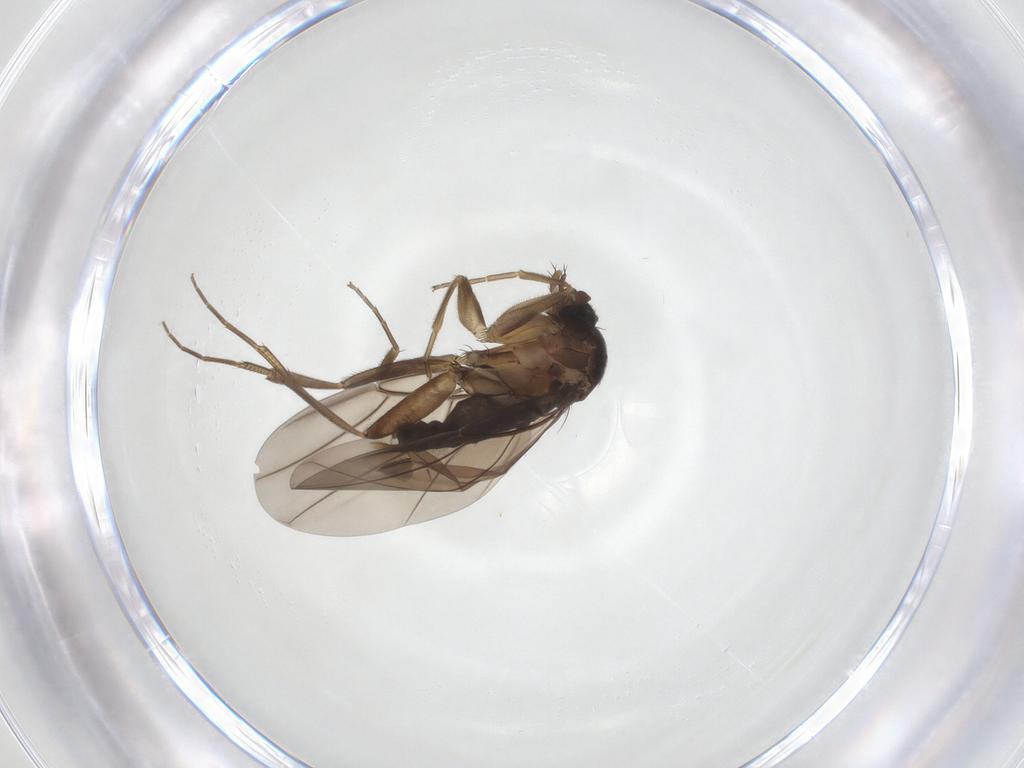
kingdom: Animalia
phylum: Arthropoda
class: Insecta
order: Diptera
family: Phoridae
